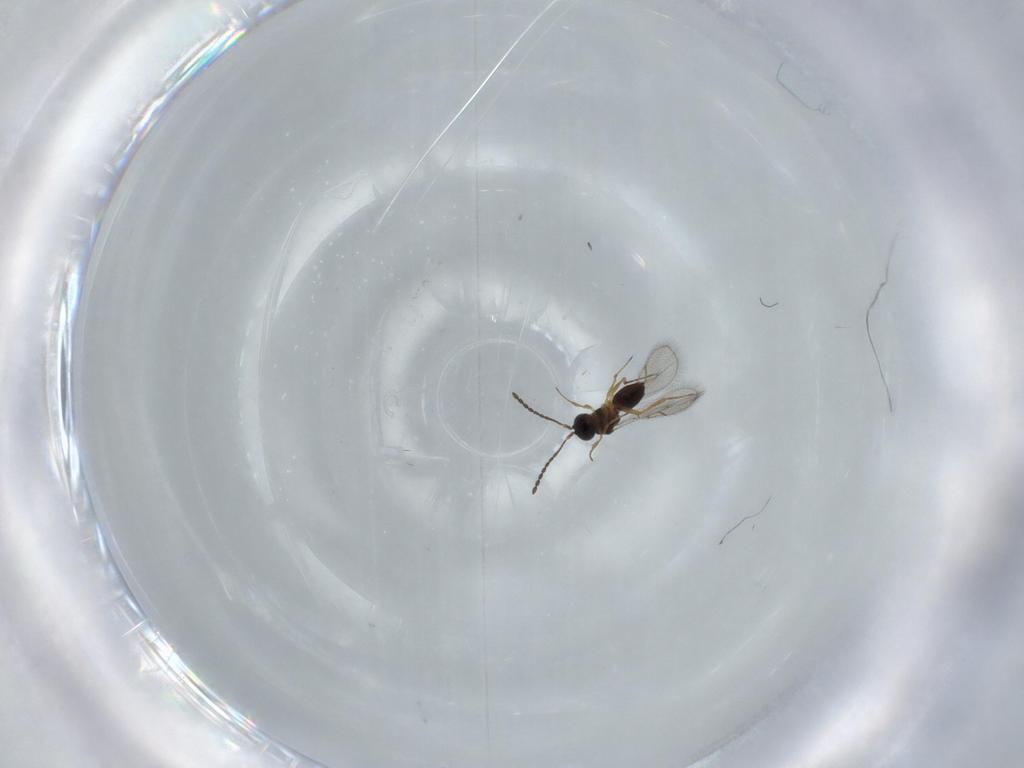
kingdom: Animalia
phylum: Arthropoda
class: Insecta
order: Hymenoptera
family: Figitidae
